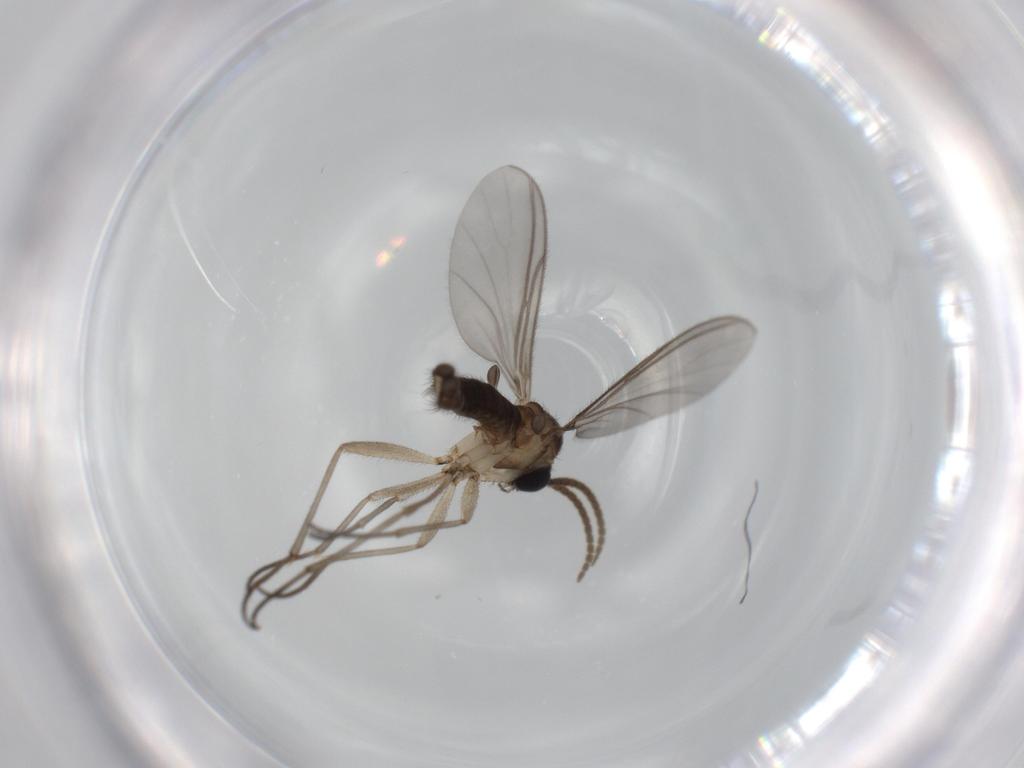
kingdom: Animalia
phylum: Arthropoda
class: Insecta
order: Diptera
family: Sciaridae
